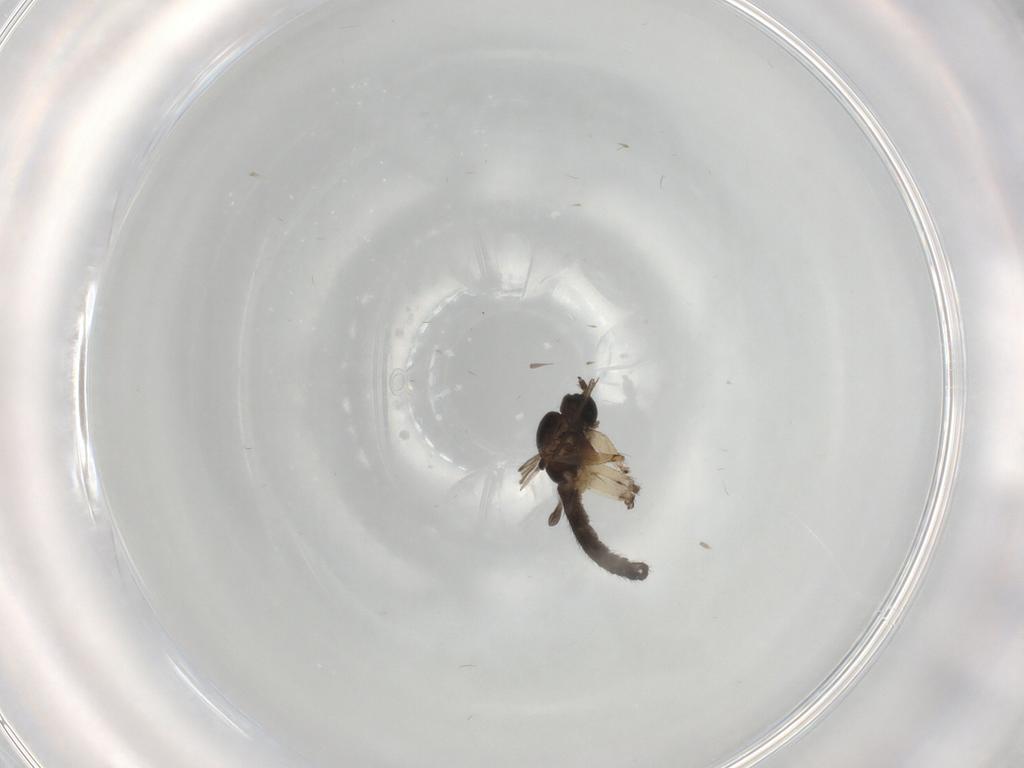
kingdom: Animalia
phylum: Arthropoda
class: Insecta
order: Diptera
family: Sciaridae
